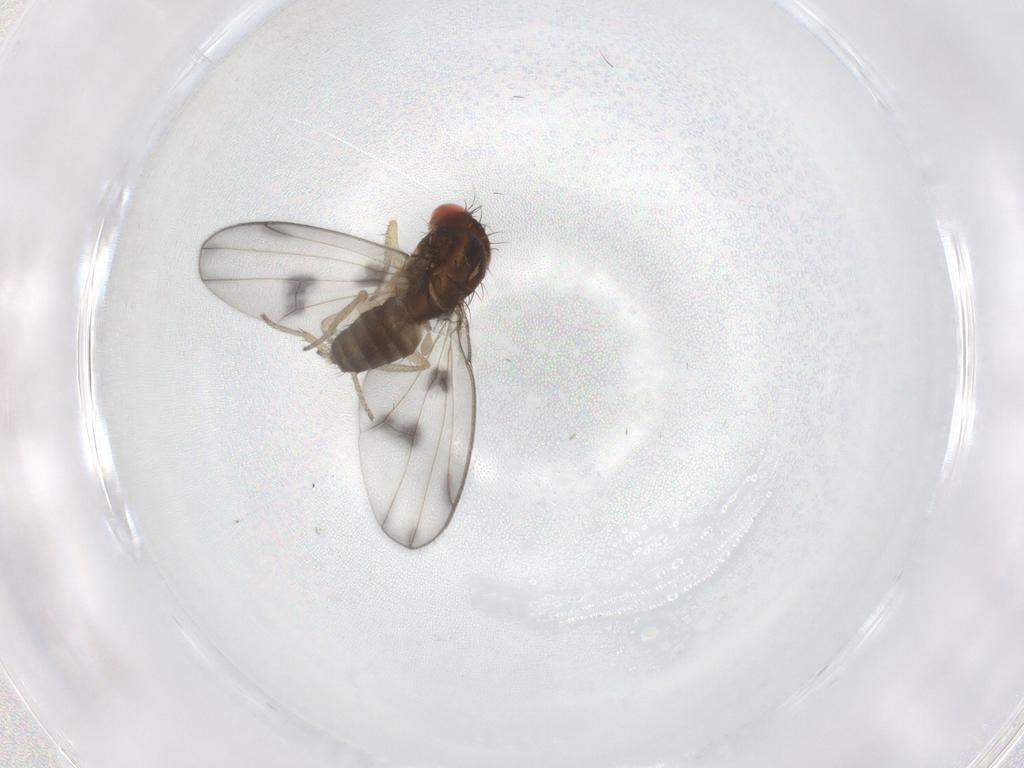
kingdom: Animalia
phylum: Arthropoda
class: Insecta
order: Diptera
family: Drosophilidae
